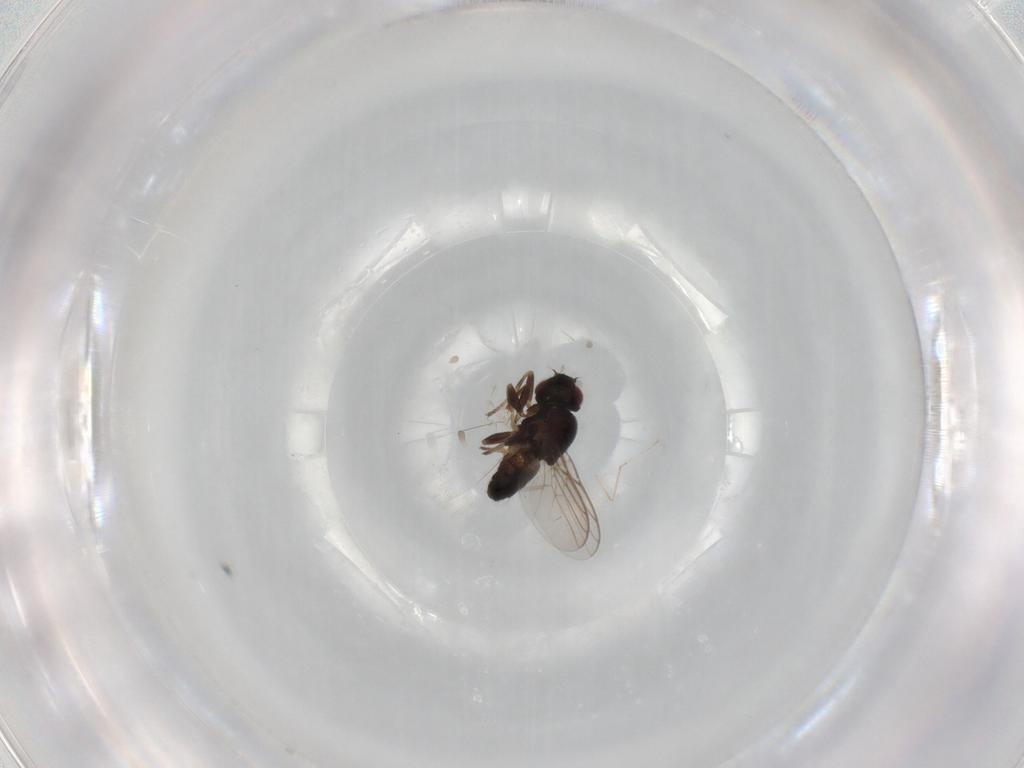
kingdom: Animalia
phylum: Arthropoda
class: Insecta
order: Diptera
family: Chloropidae
